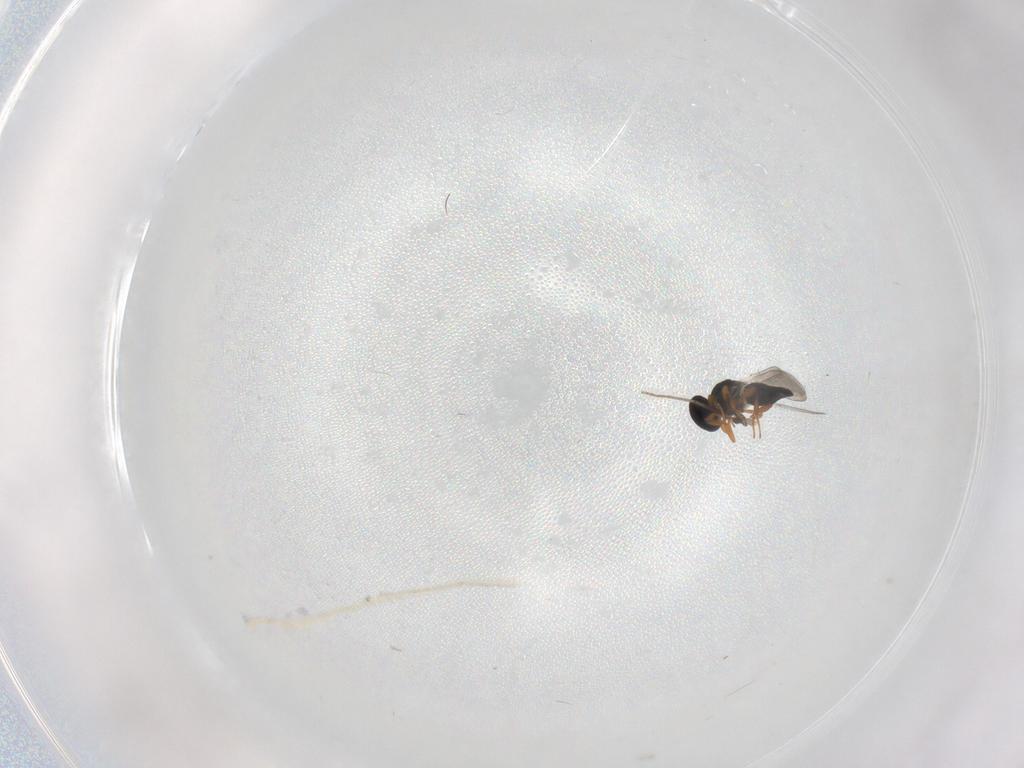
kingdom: Animalia
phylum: Arthropoda
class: Insecta
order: Hymenoptera
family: Platygastridae
